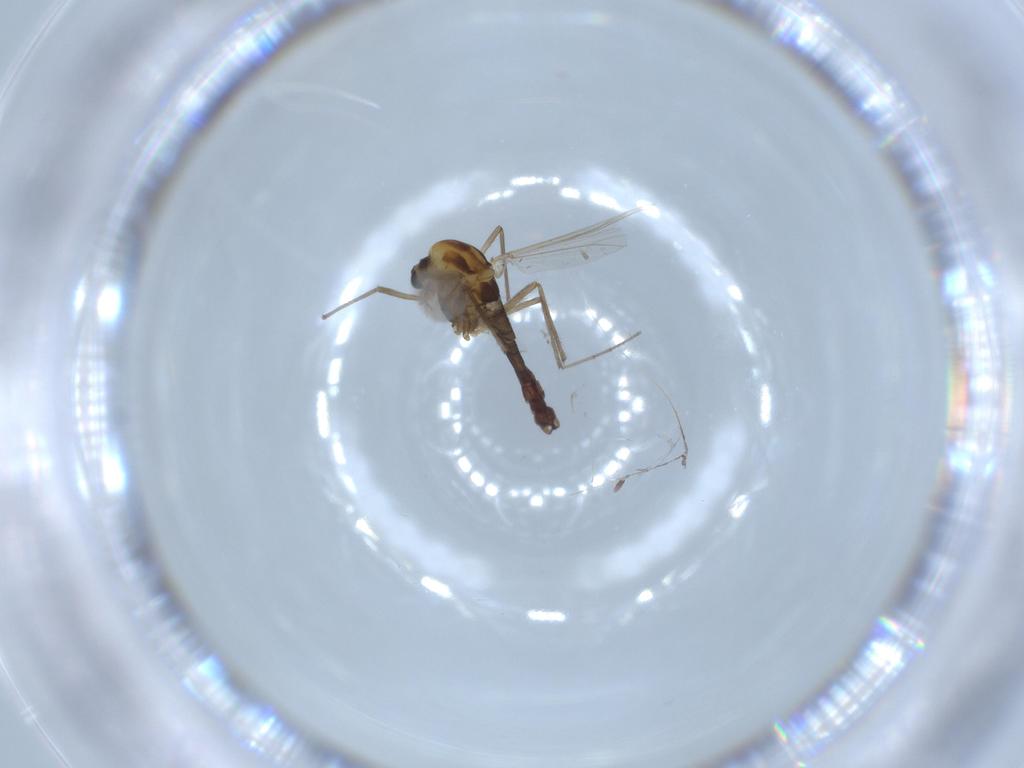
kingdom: Animalia
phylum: Arthropoda
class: Insecta
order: Diptera
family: Chironomidae
